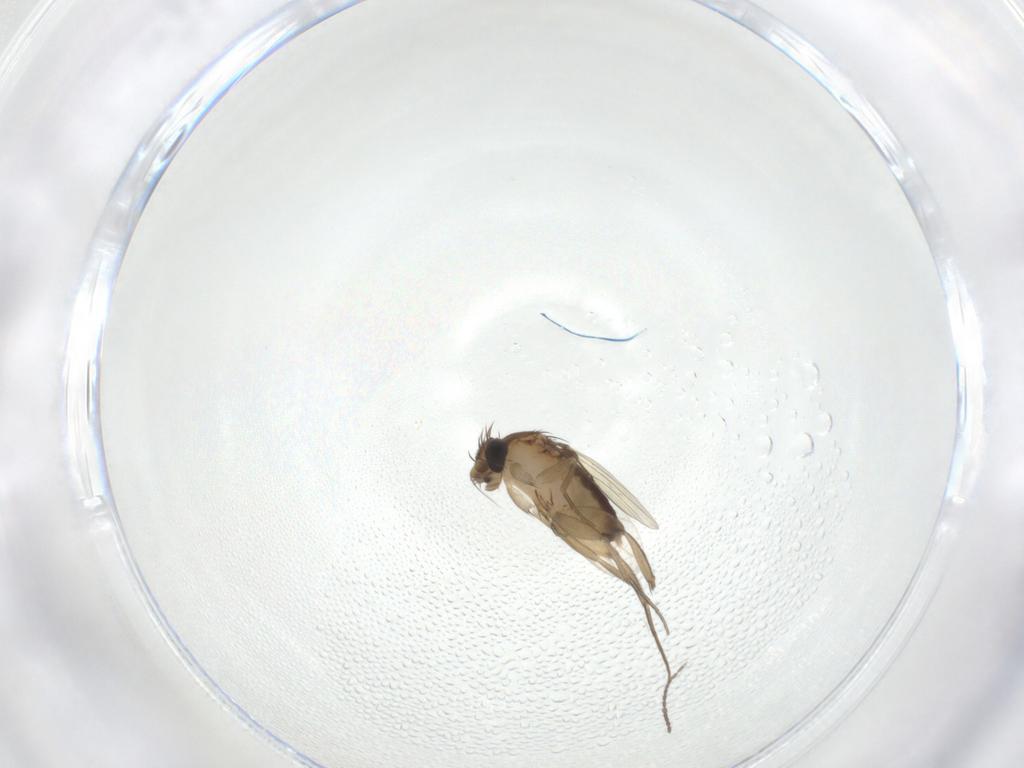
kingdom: Animalia
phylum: Arthropoda
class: Insecta
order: Diptera
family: Phoridae
